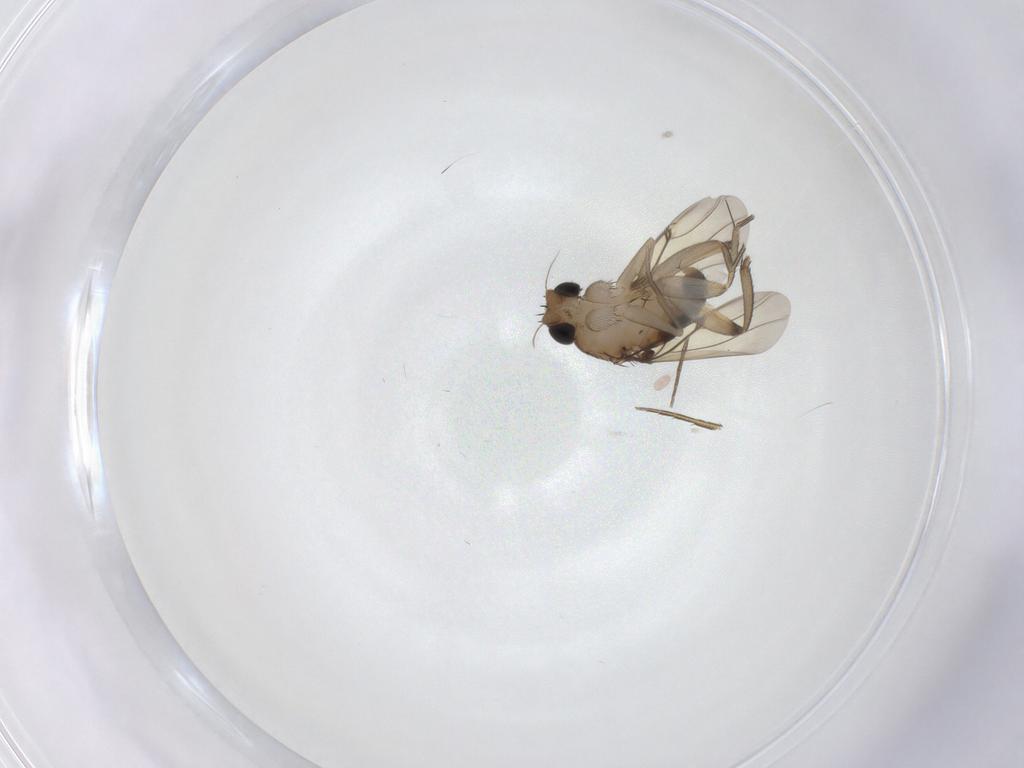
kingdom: Animalia
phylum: Arthropoda
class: Insecta
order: Diptera
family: Phoridae
